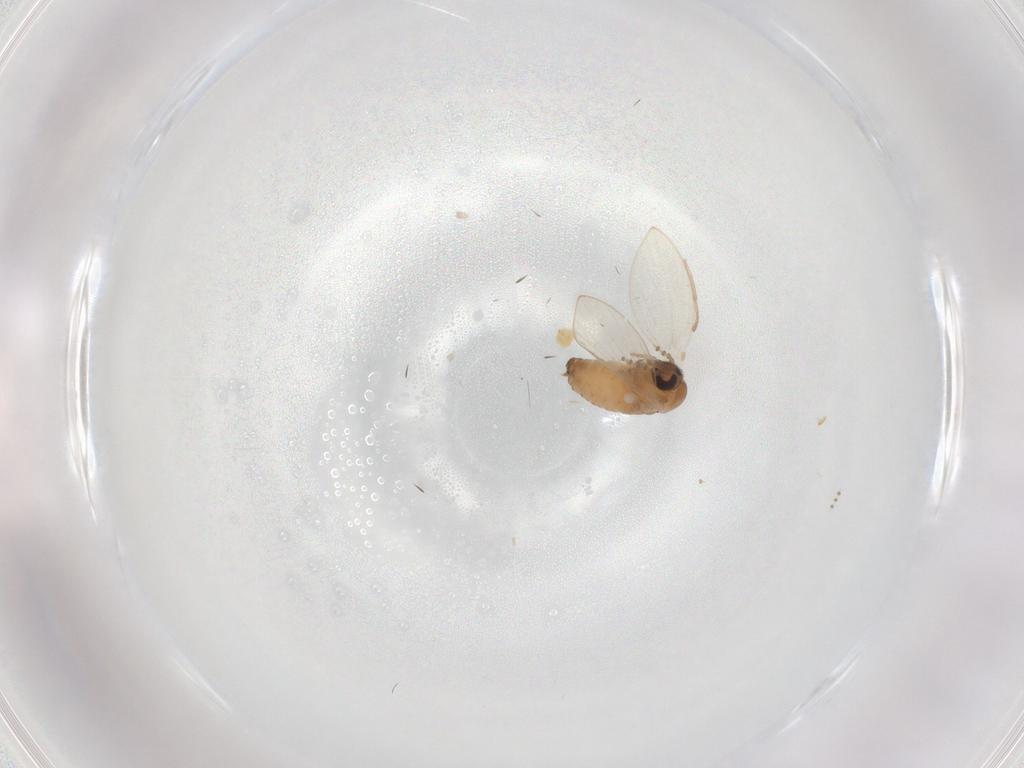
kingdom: Animalia
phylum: Arthropoda
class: Insecta
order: Diptera
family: Psychodidae
